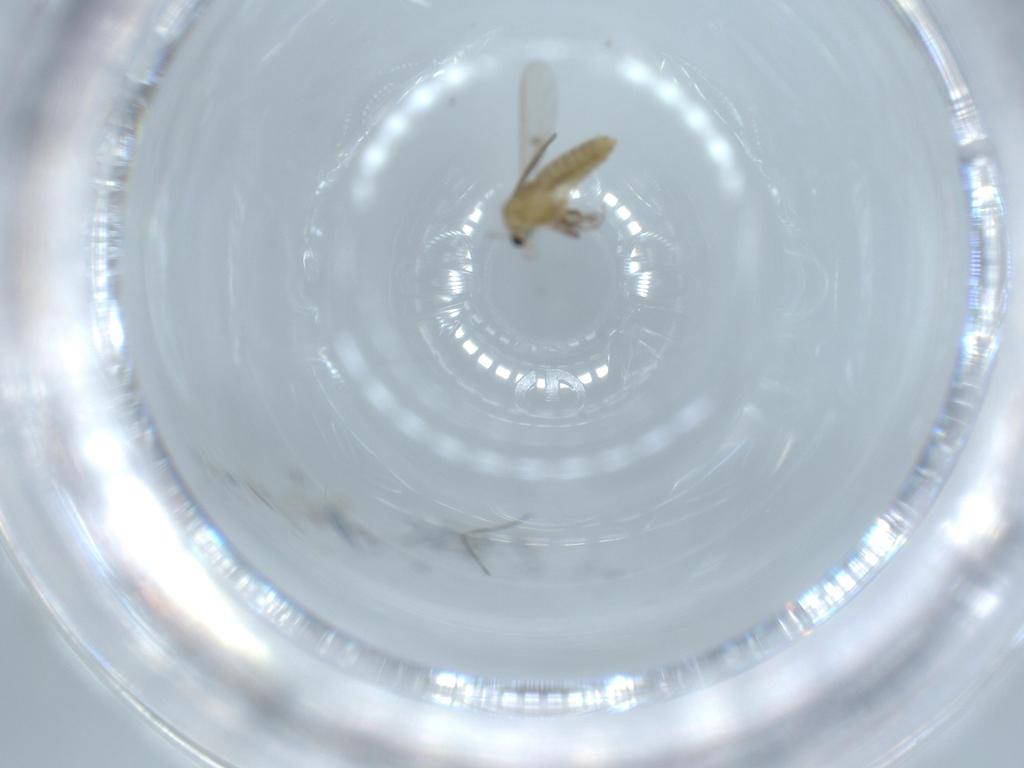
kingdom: Animalia
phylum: Arthropoda
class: Insecta
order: Diptera
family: Chironomidae
